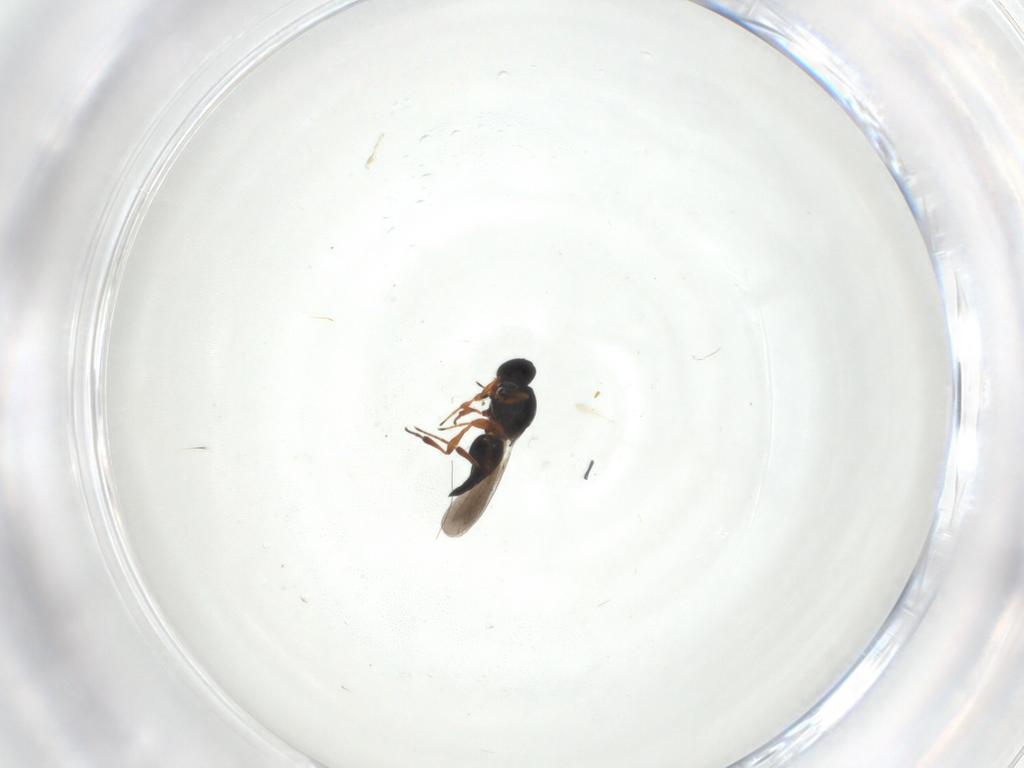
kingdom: Animalia
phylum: Arthropoda
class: Insecta
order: Hymenoptera
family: Platygastridae
